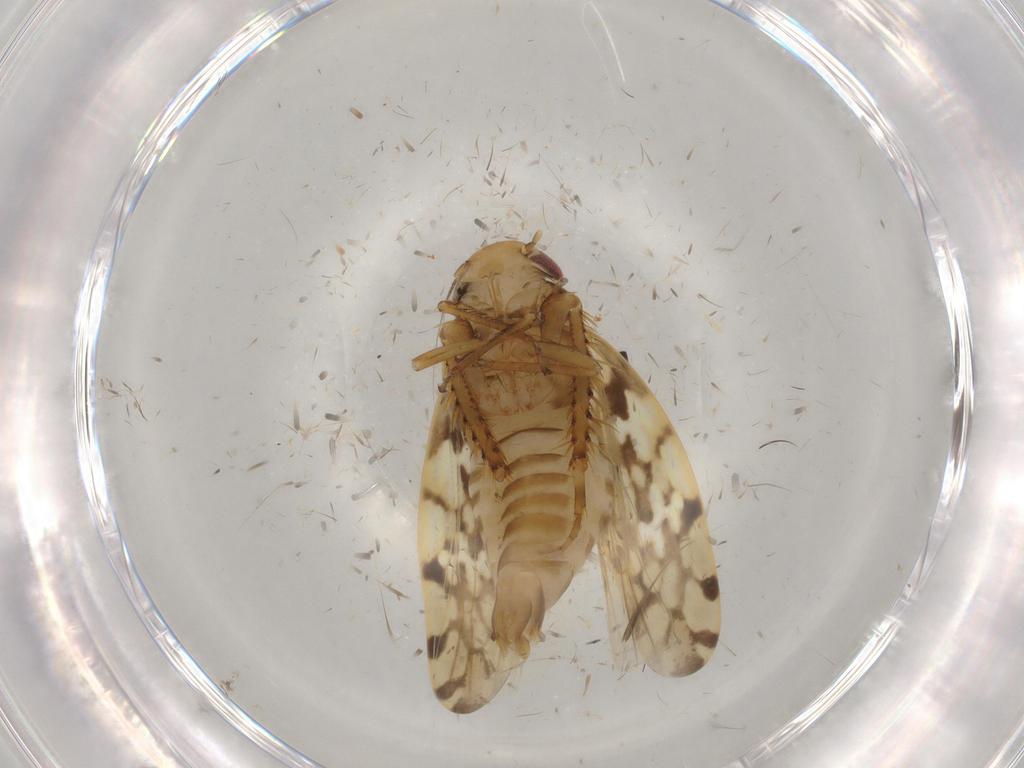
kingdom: Animalia
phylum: Arthropoda
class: Insecta
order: Hemiptera
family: Cicadellidae
